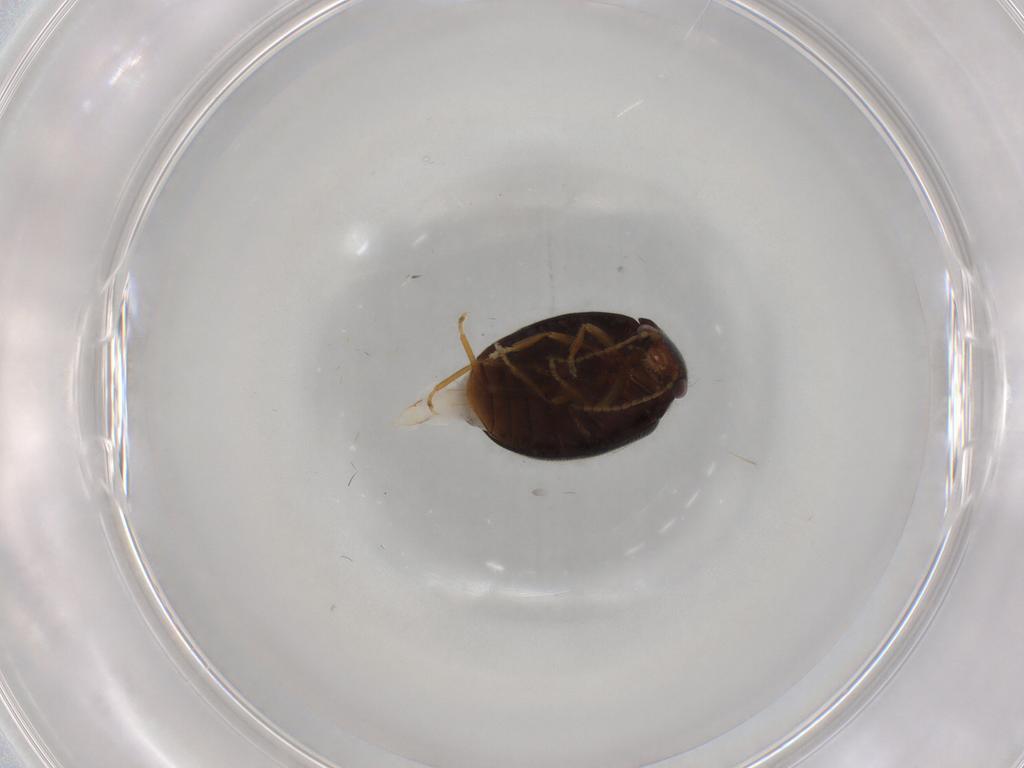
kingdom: Animalia
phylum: Arthropoda
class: Insecta
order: Coleoptera
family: Scirtidae
